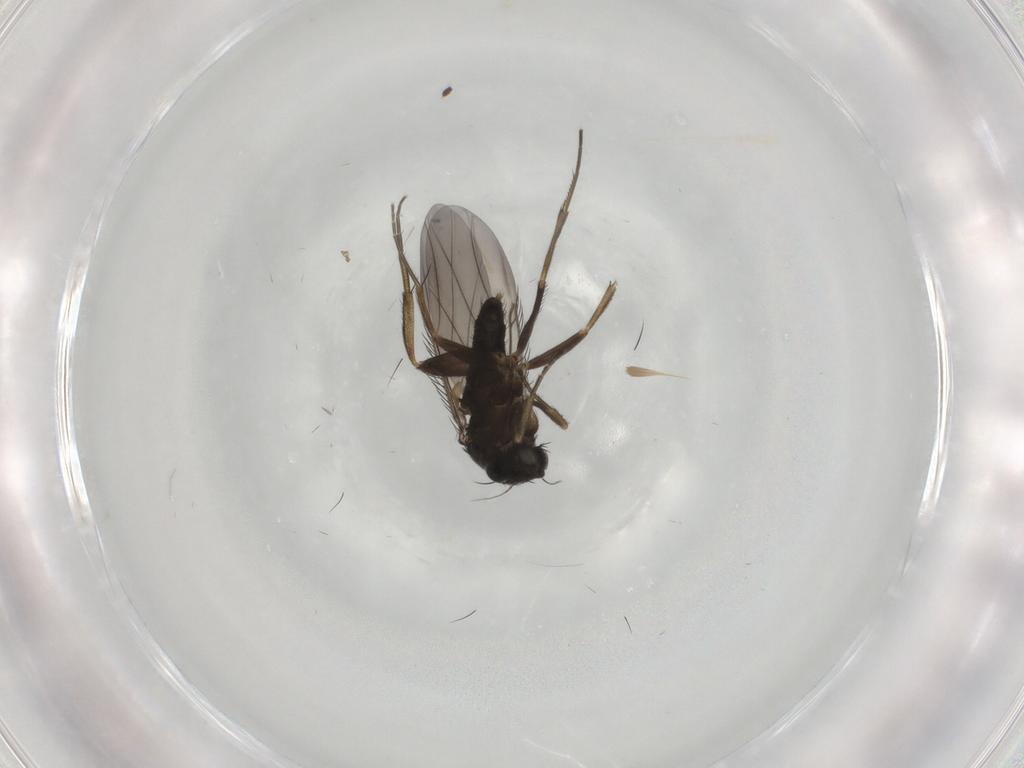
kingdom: Animalia
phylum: Arthropoda
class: Insecta
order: Diptera
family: Phoridae
